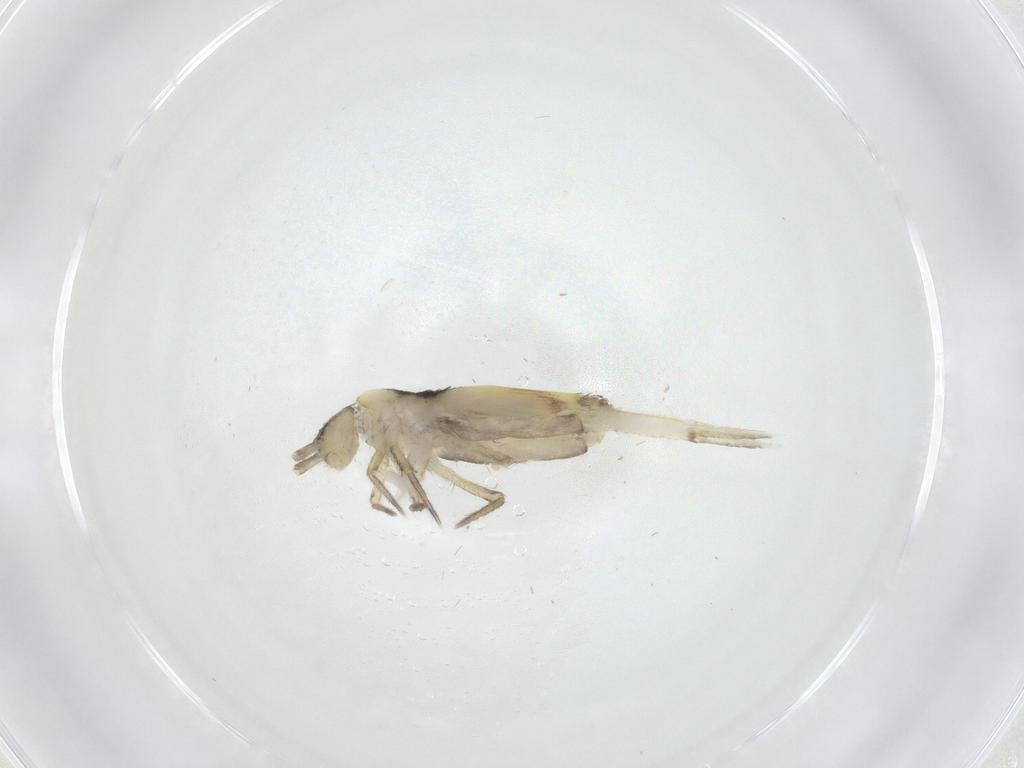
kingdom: Animalia
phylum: Arthropoda
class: Collembola
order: Entomobryomorpha
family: Entomobryidae
